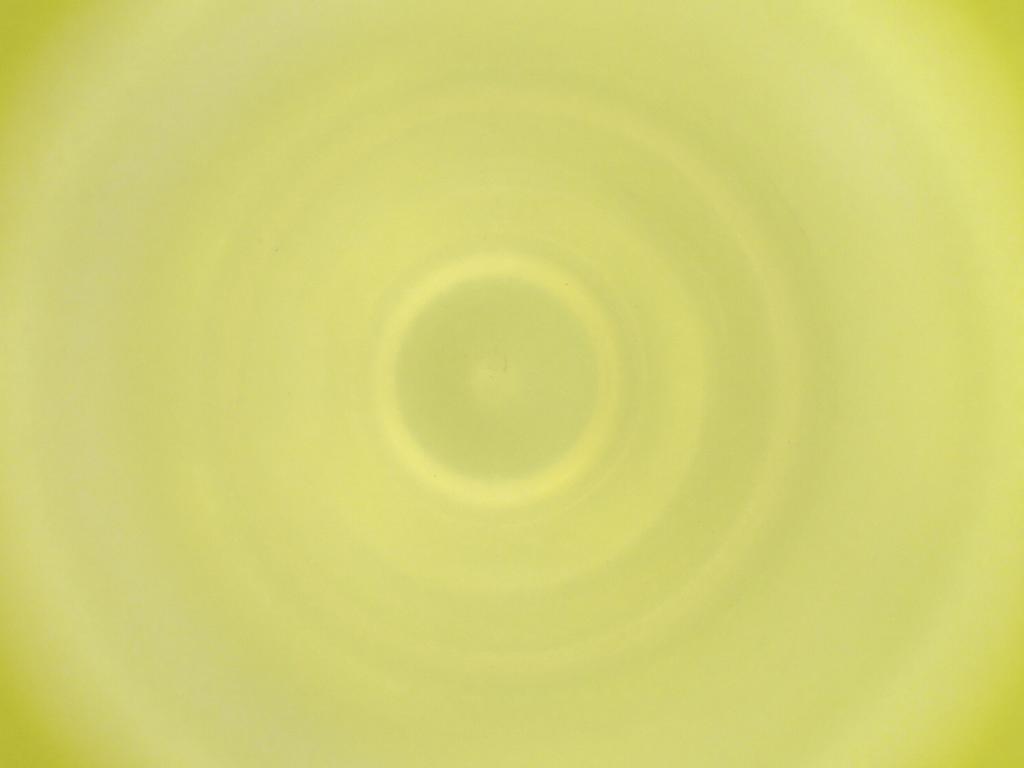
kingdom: Animalia
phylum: Arthropoda
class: Insecta
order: Diptera
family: Cecidomyiidae
